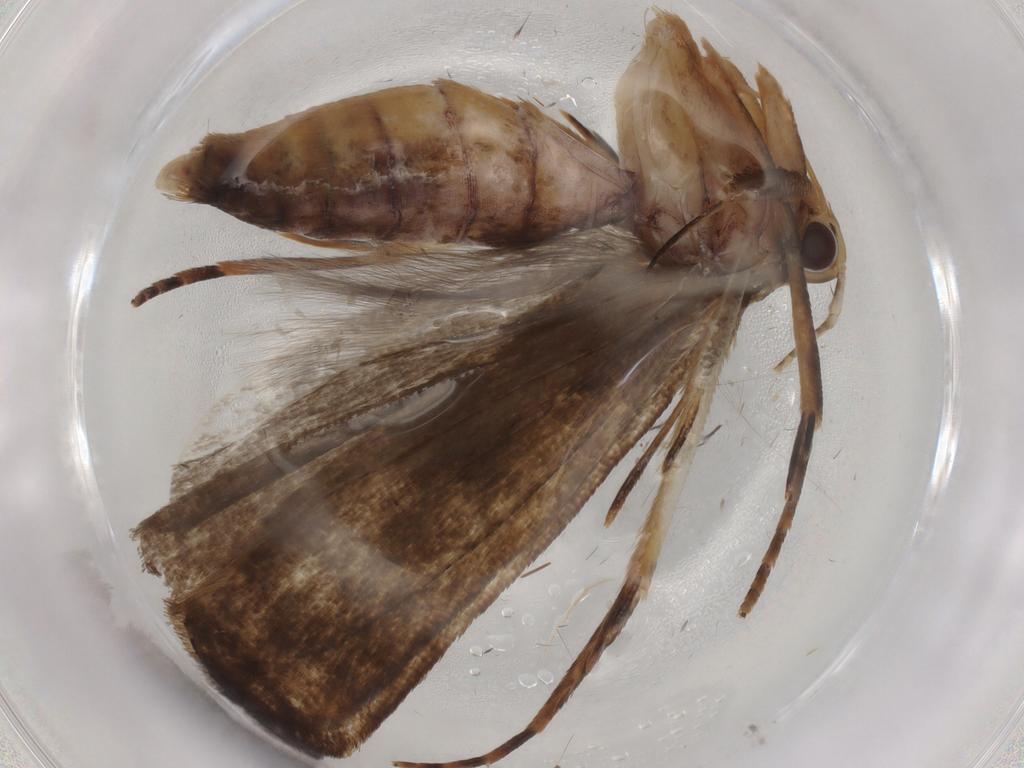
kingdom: Animalia
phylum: Arthropoda
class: Insecta
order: Lepidoptera
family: Gelechiidae
